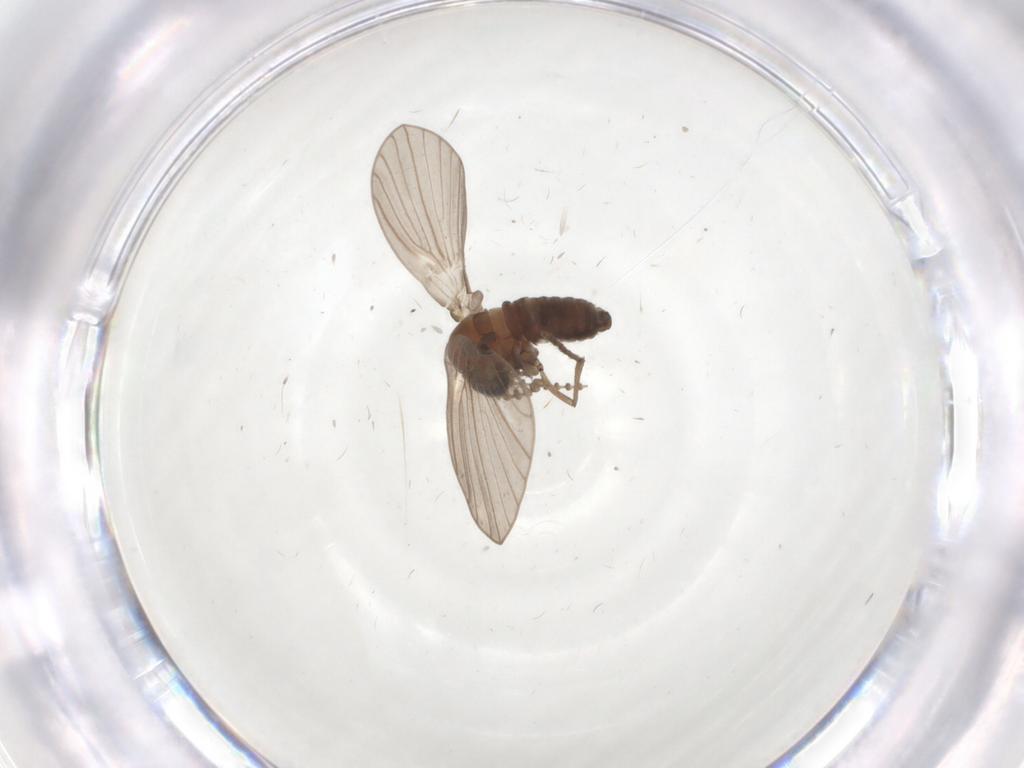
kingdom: Animalia
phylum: Arthropoda
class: Insecta
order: Diptera
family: Psychodidae
